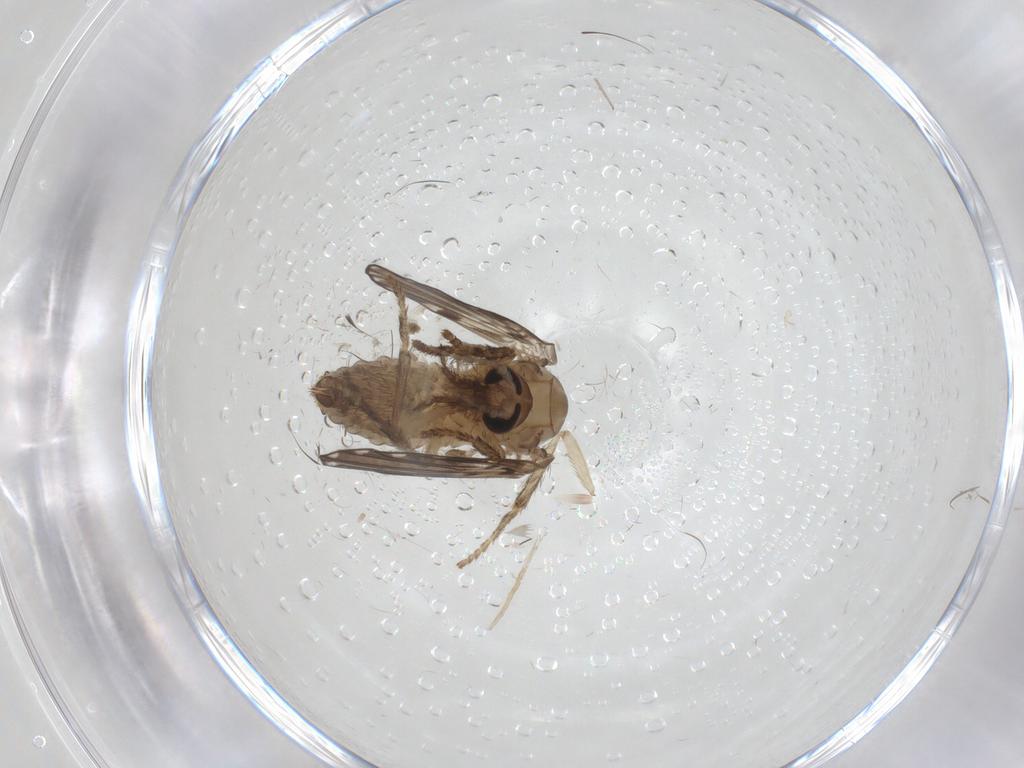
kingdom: Animalia
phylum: Arthropoda
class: Insecta
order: Diptera
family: Psychodidae
